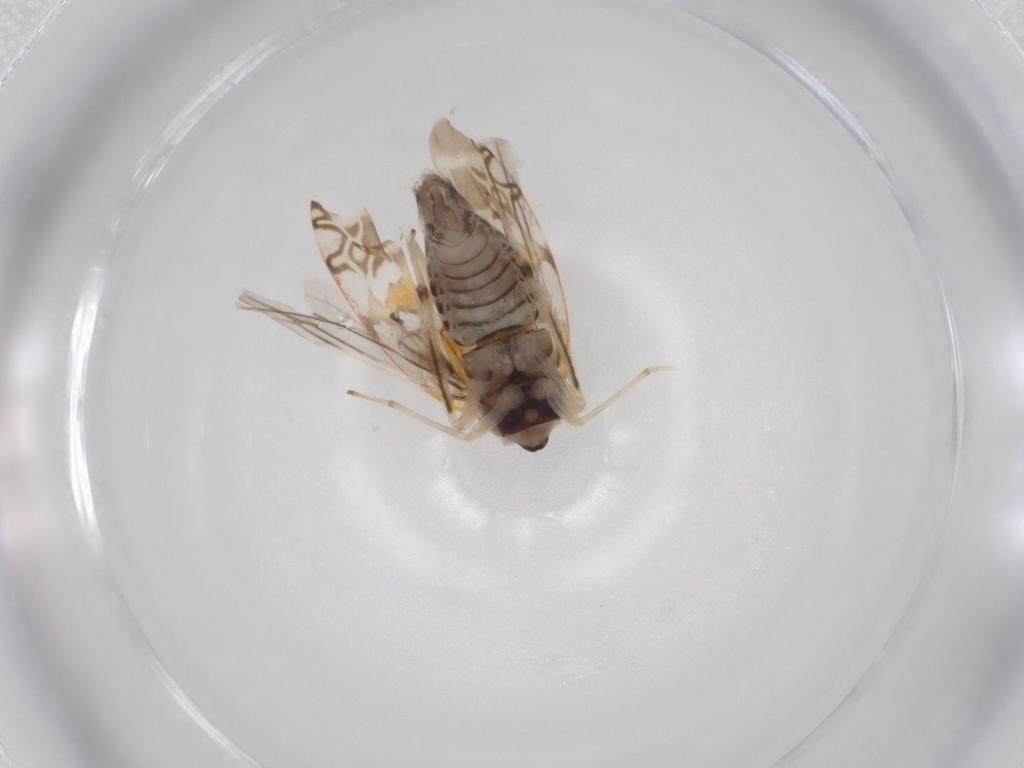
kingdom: Animalia
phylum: Arthropoda
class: Insecta
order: Hemiptera
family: Cicadellidae
